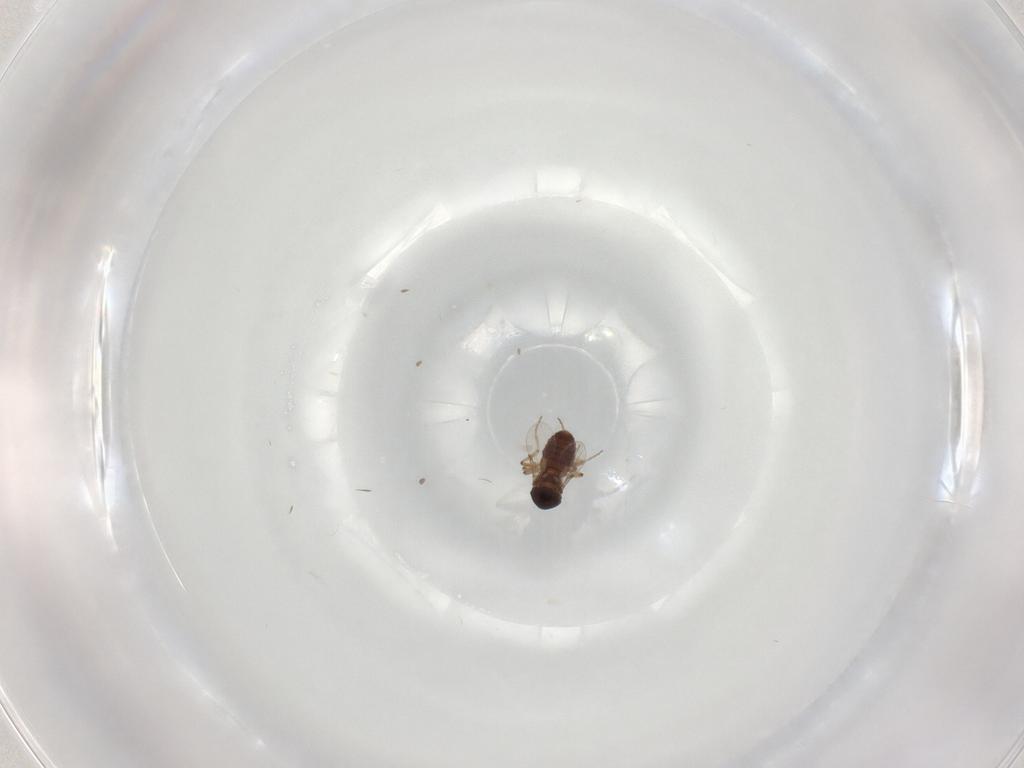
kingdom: Animalia
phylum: Arthropoda
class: Insecta
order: Diptera
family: Ceratopogonidae
